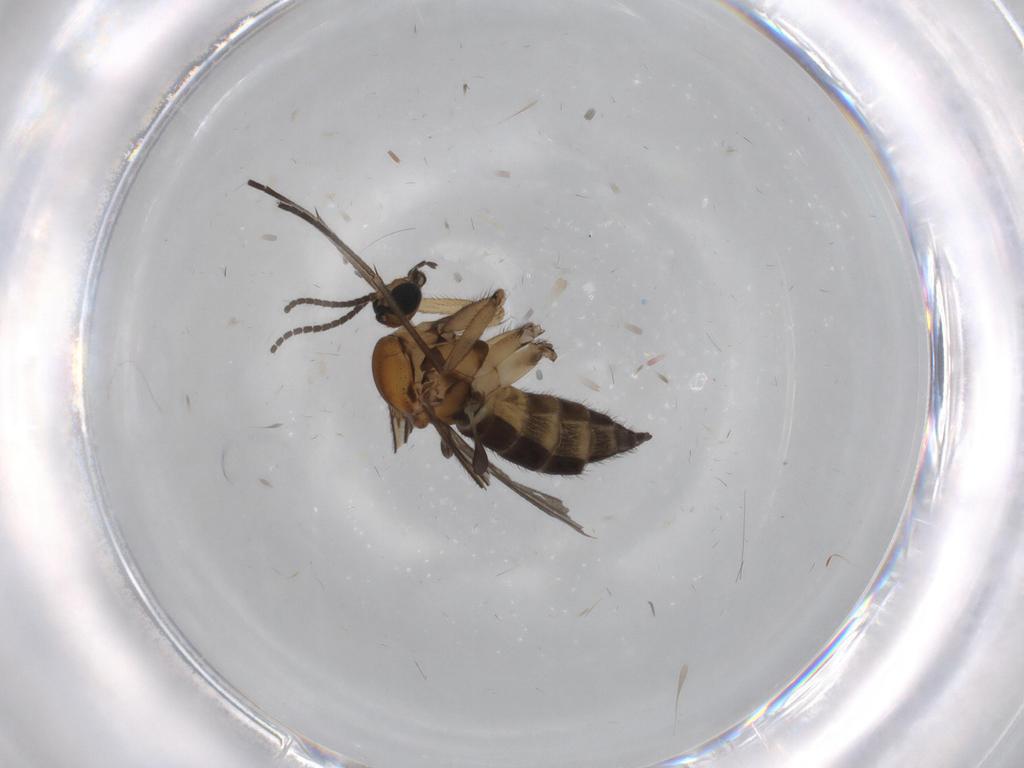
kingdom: Animalia
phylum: Arthropoda
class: Insecta
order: Diptera
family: Sciaridae
